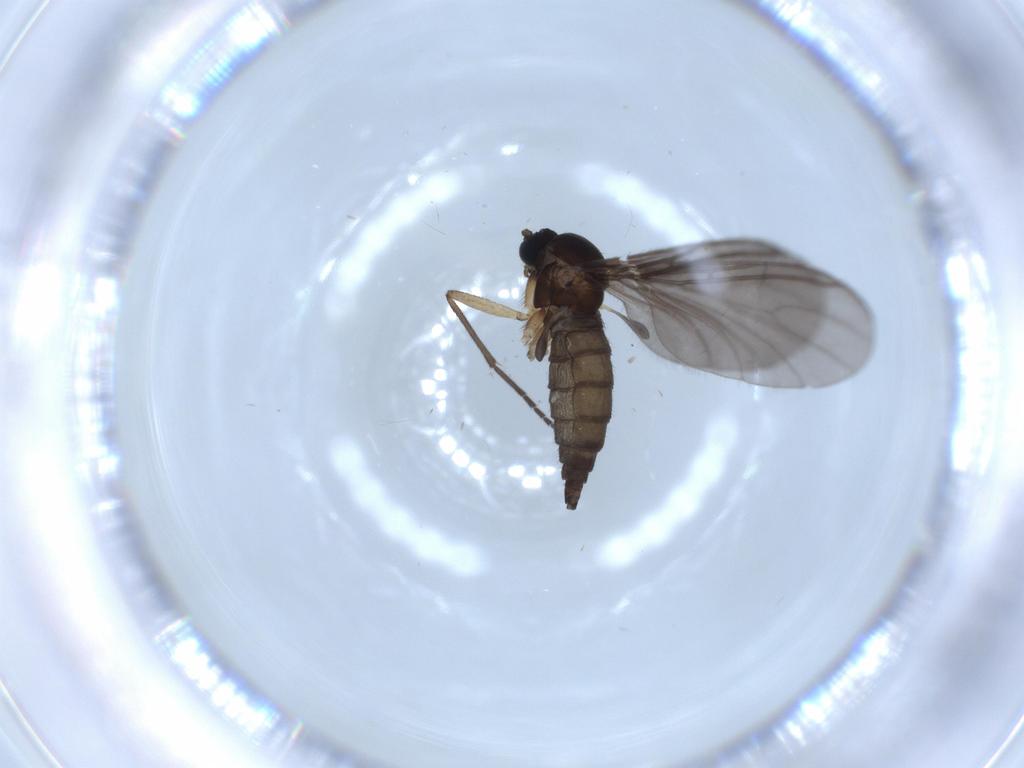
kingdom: Animalia
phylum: Arthropoda
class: Insecta
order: Diptera
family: Sciaridae
